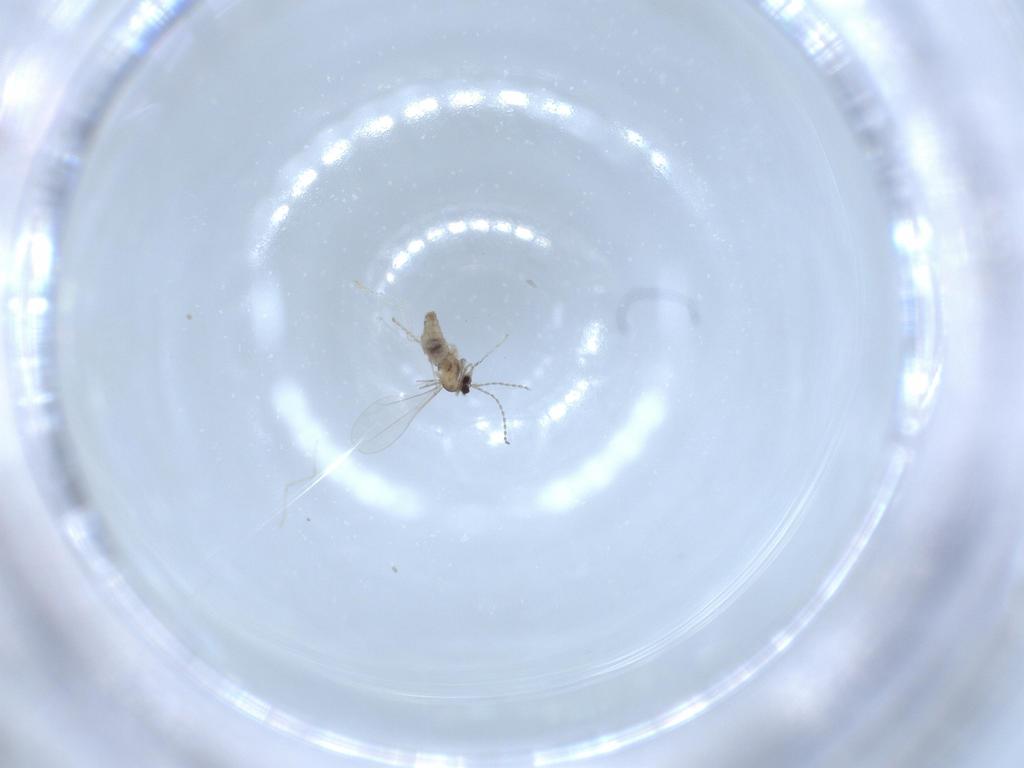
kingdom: Animalia
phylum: Arthropoda
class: Insecta
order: Diptera
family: Cecidomyiidae
